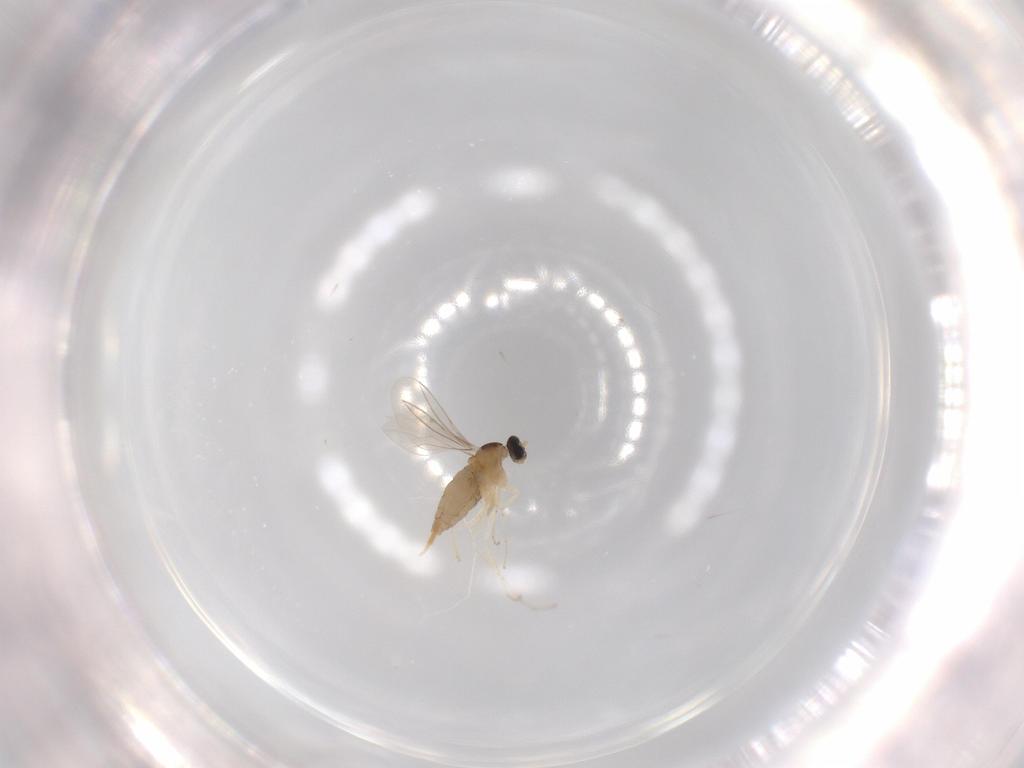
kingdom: Animalia
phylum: Arthropoda
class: Insecta
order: Diptera
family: Cecidomyiidae
